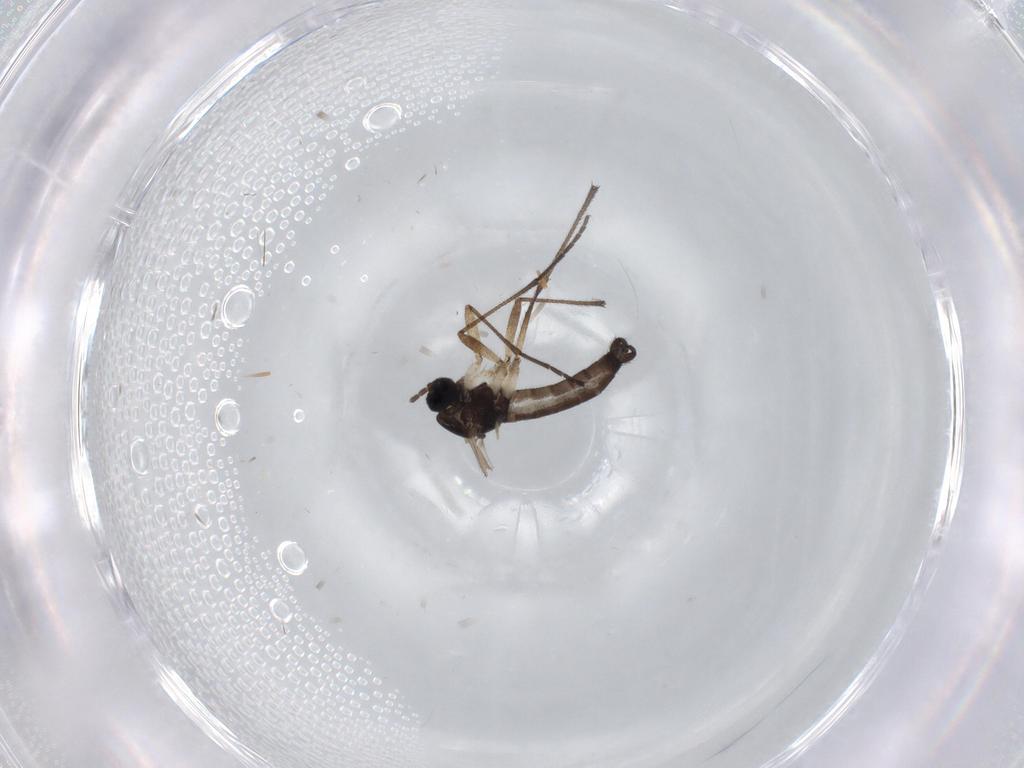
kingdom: Animalia
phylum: Arthropoda
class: Insecta
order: Diptera
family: Sciaridae
